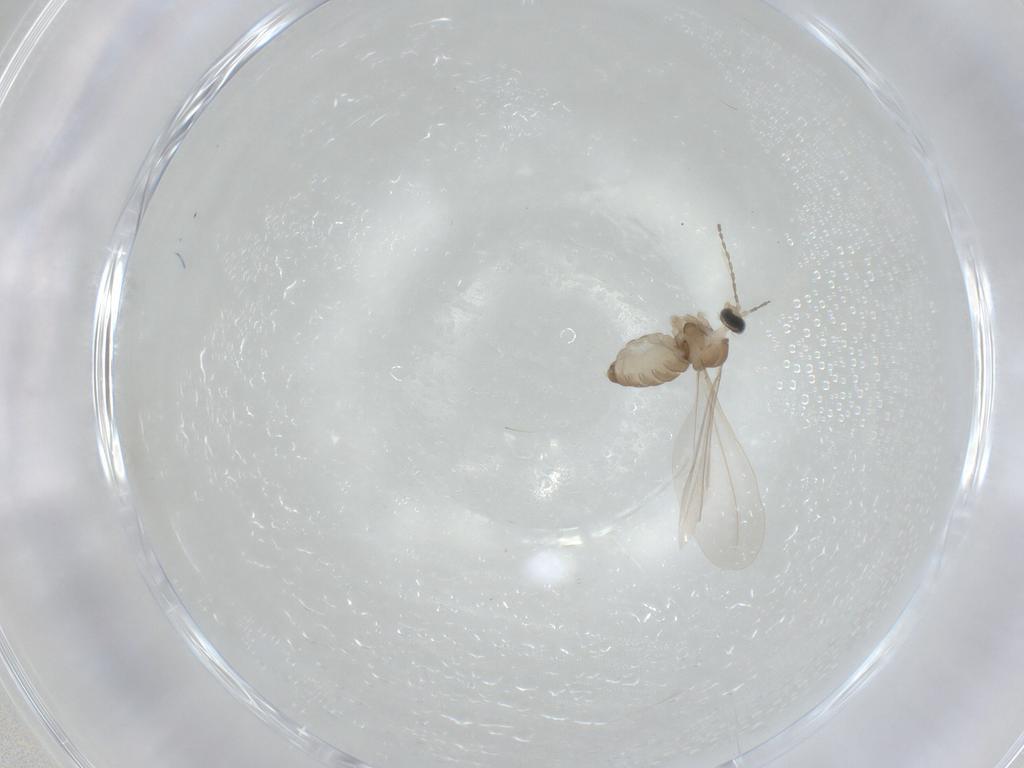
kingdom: Animalia
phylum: Arthropoda
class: Insecta
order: Diptera
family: Cecidomyiidae
